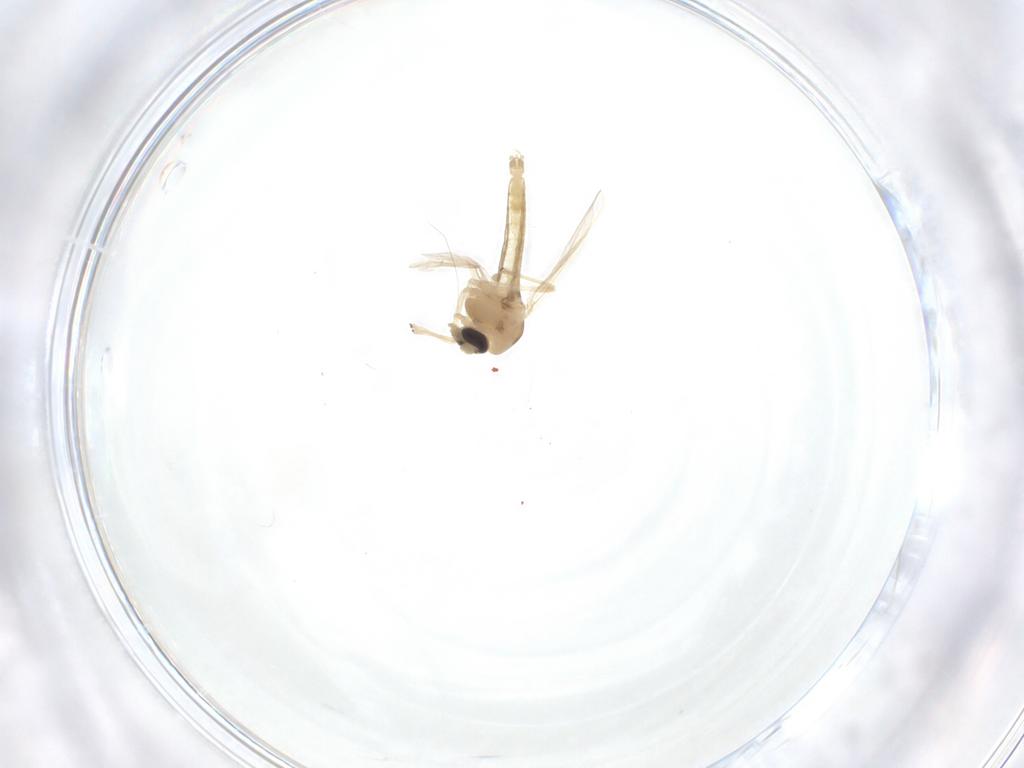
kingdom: Animalia
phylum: Arthropoda
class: Insecta
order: Diptera
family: Chironomidae
